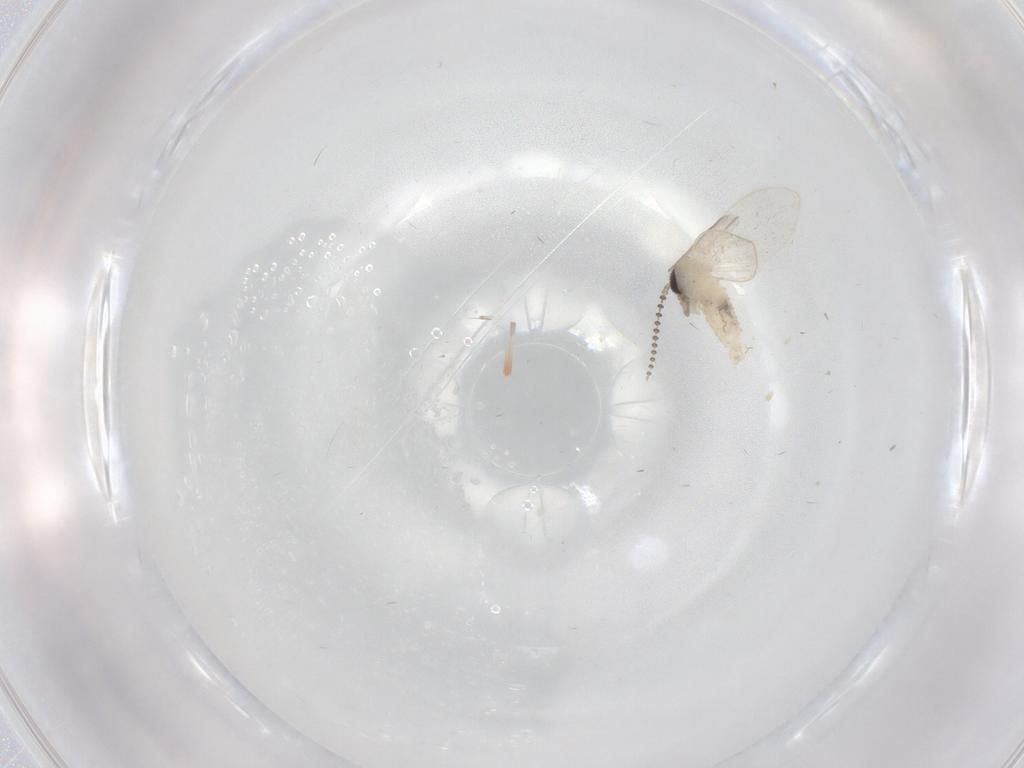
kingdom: Animalia
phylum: Arthropoda
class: Insecta
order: Diptera
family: Psychodidae
